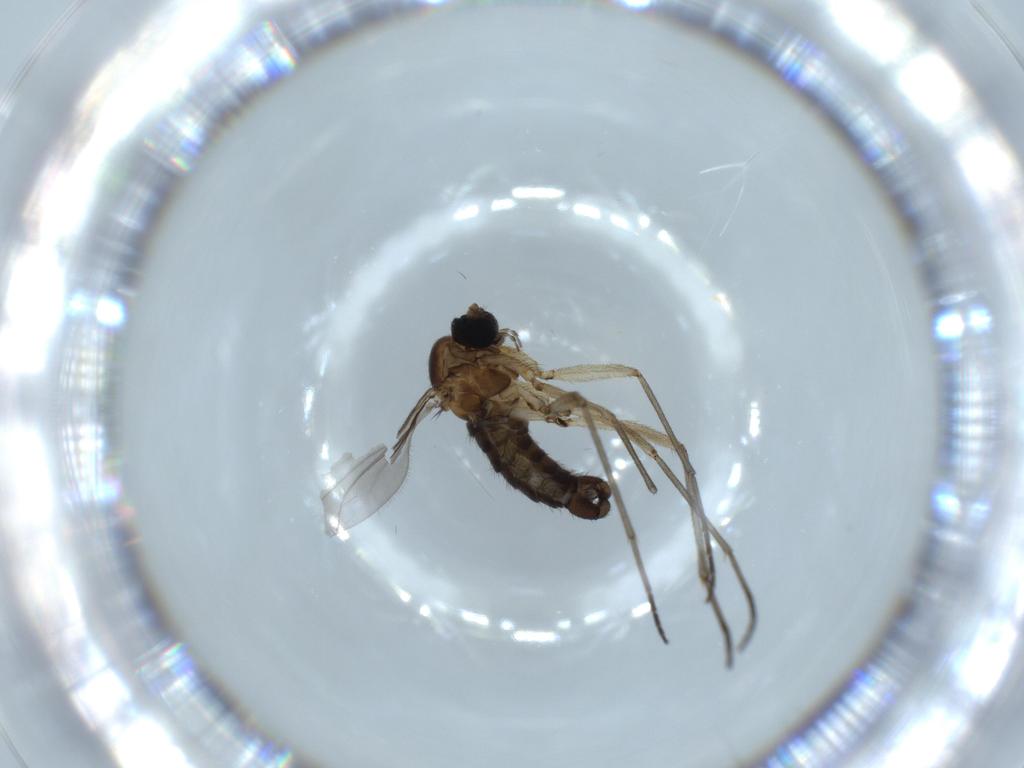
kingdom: Animalia
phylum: Arthropoda
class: Insecta
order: Diptera
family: Sciaridae
